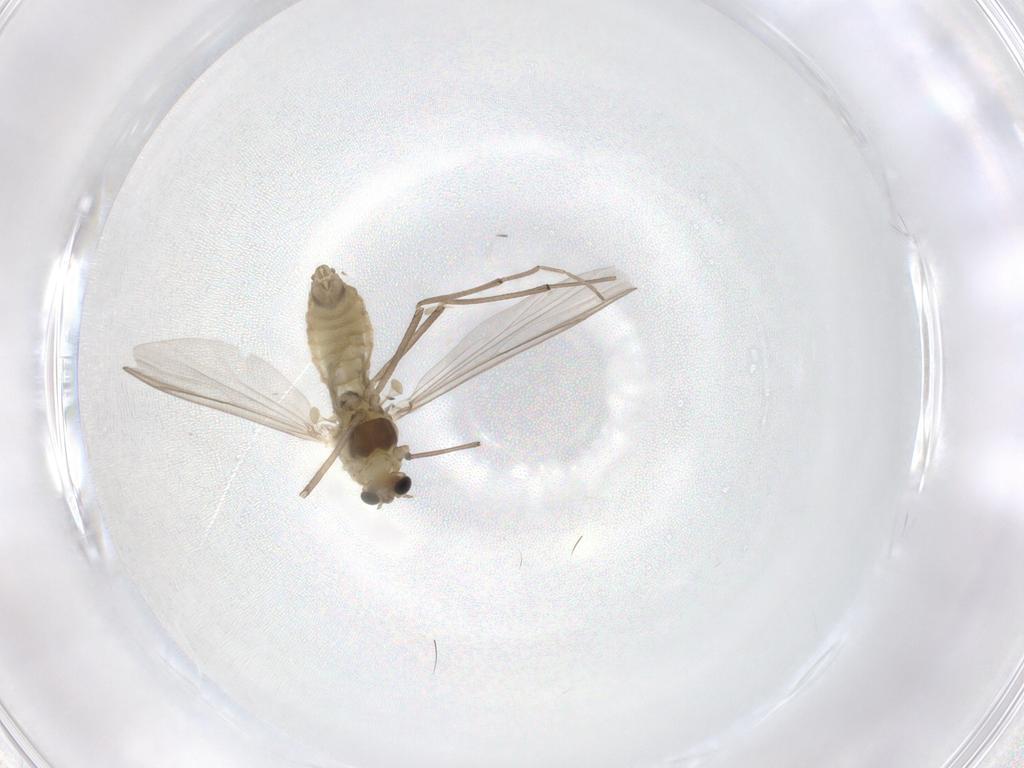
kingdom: Animalia
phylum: Arthropoda
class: Insecta
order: Diptera
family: Chironomidae
